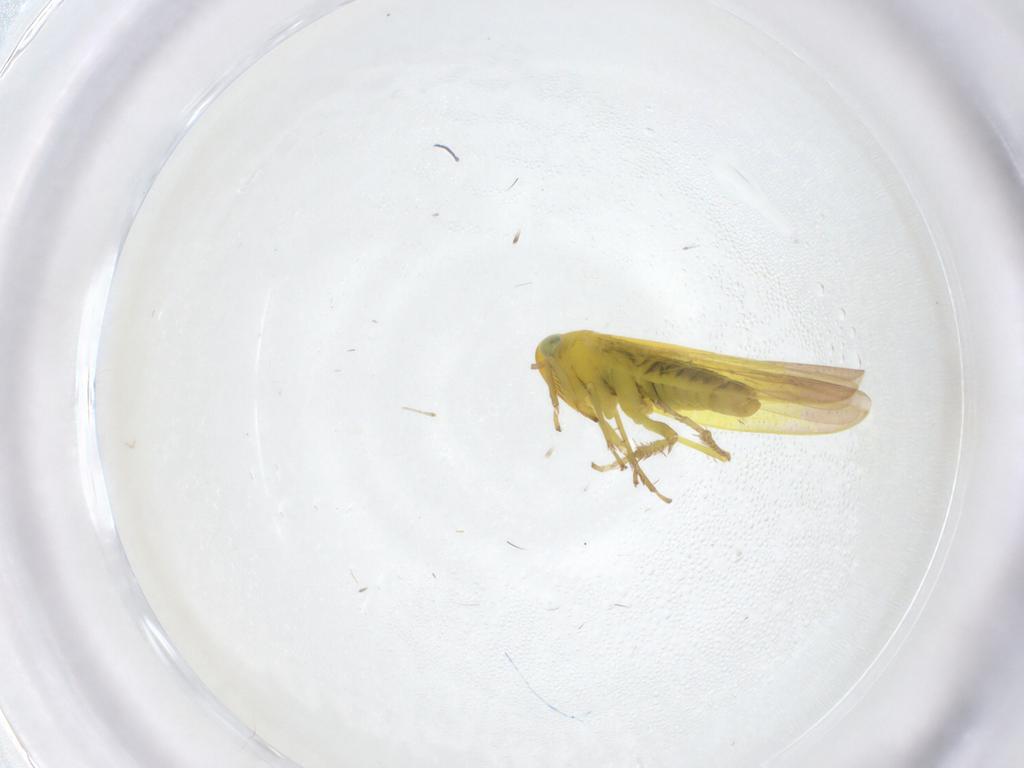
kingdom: Animalia
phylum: Arthropoda
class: Insecta
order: Hemiptera
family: Cicadellidae
